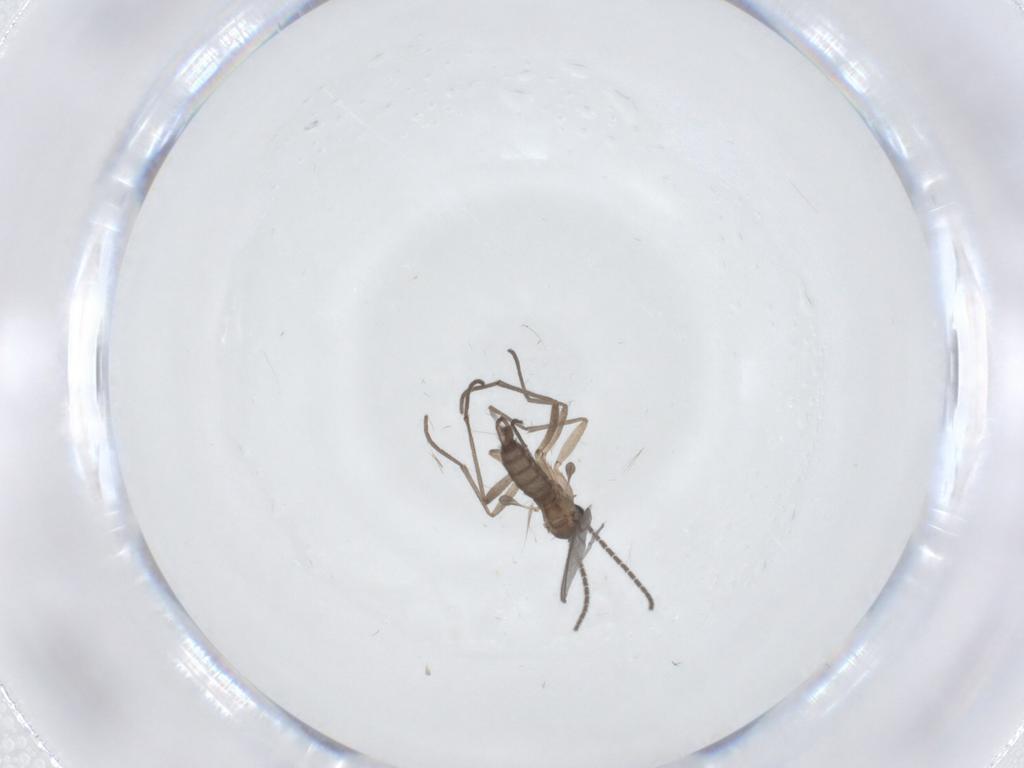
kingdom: Animalia
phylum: Arthropoda
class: Insecta
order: Diptera
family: Sciaridae
